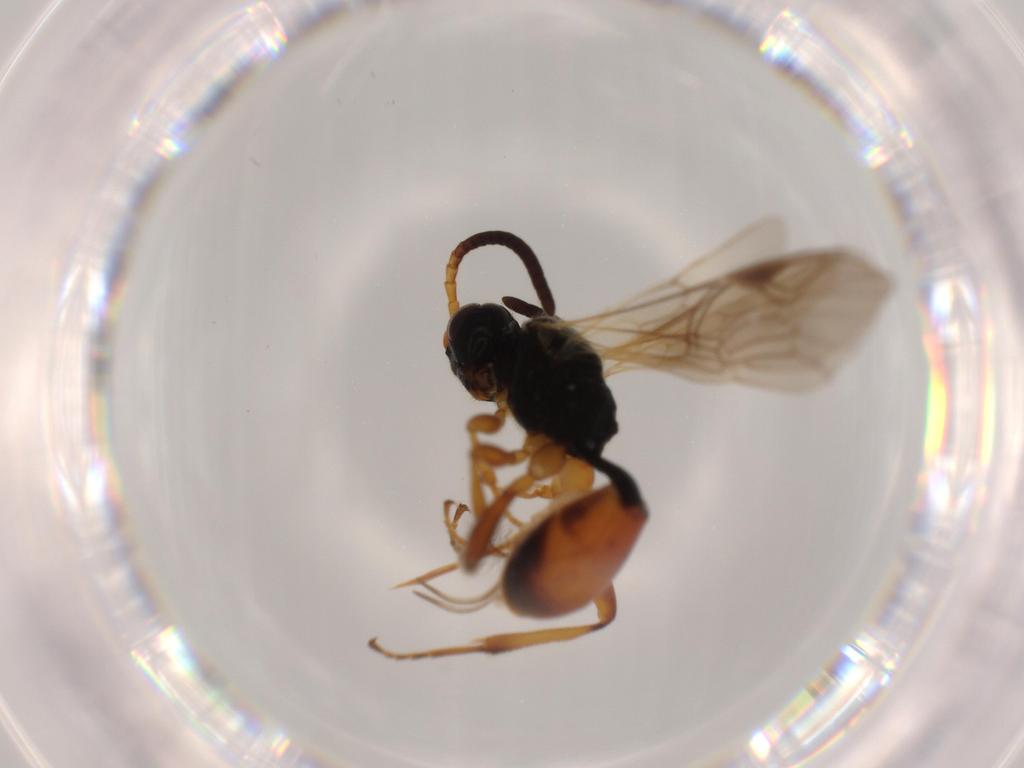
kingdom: Animalia
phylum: Arthropoda
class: Insecta
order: Hymenoptera
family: Ichneumonidae
